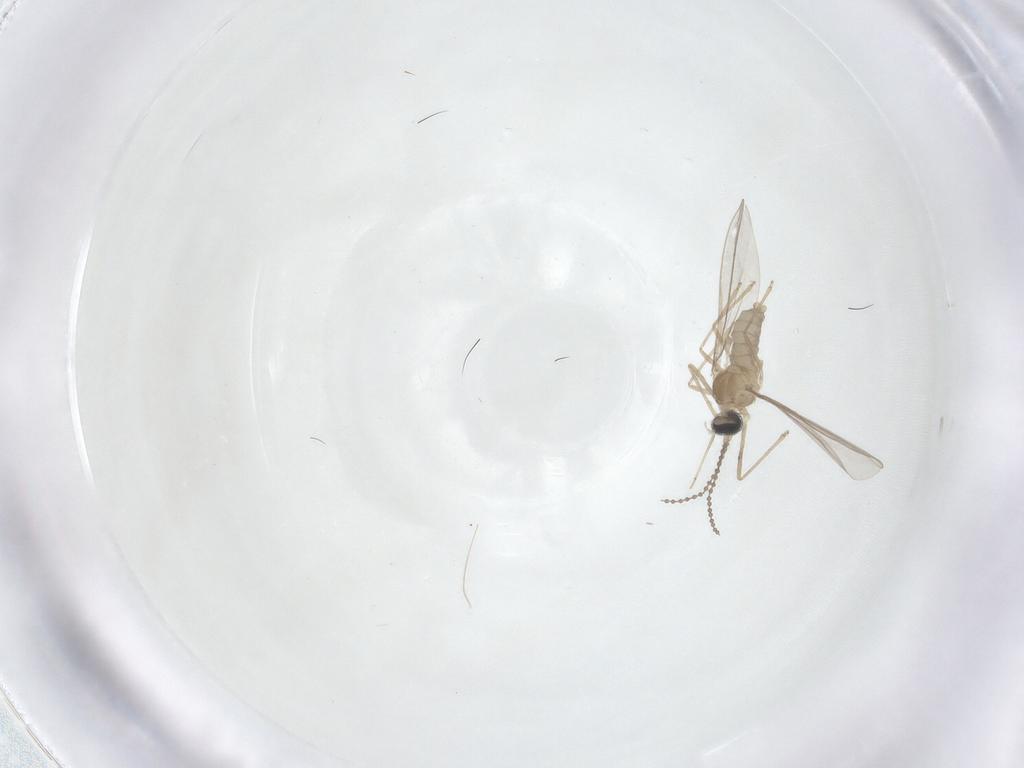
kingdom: Animalia
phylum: Arthropoda
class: Insecta
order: Diptera
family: Cecidomyiidae
